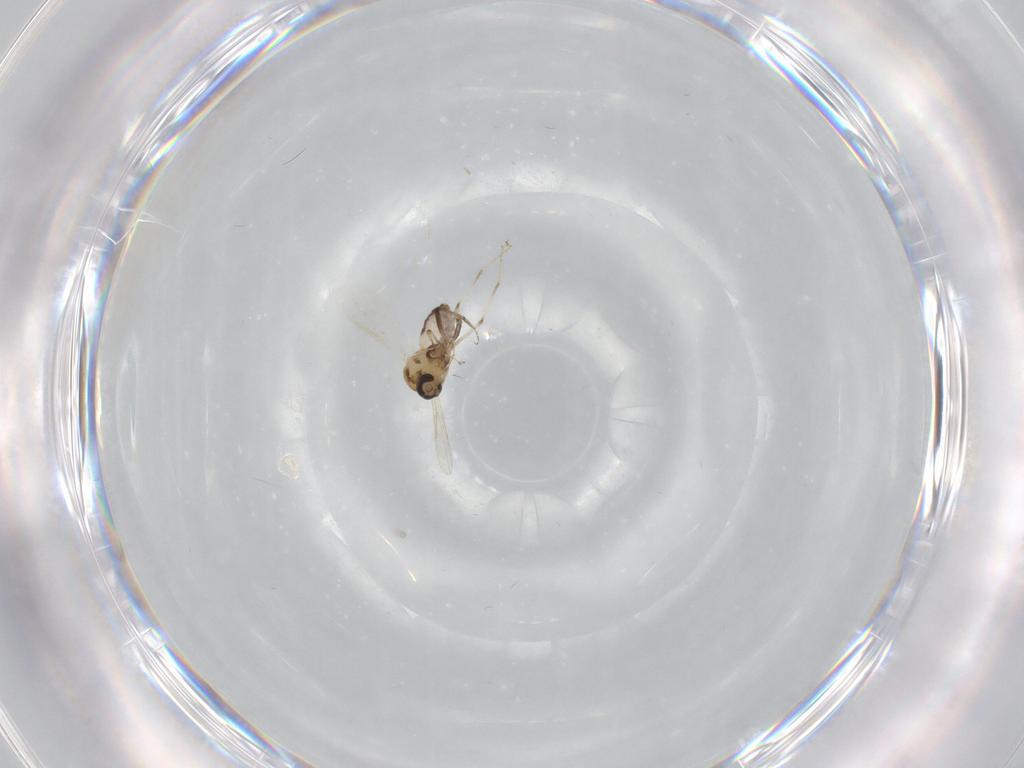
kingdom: Animalia
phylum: Arthropoda
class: Insecta
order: Diptera
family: Ceratopogonidae
